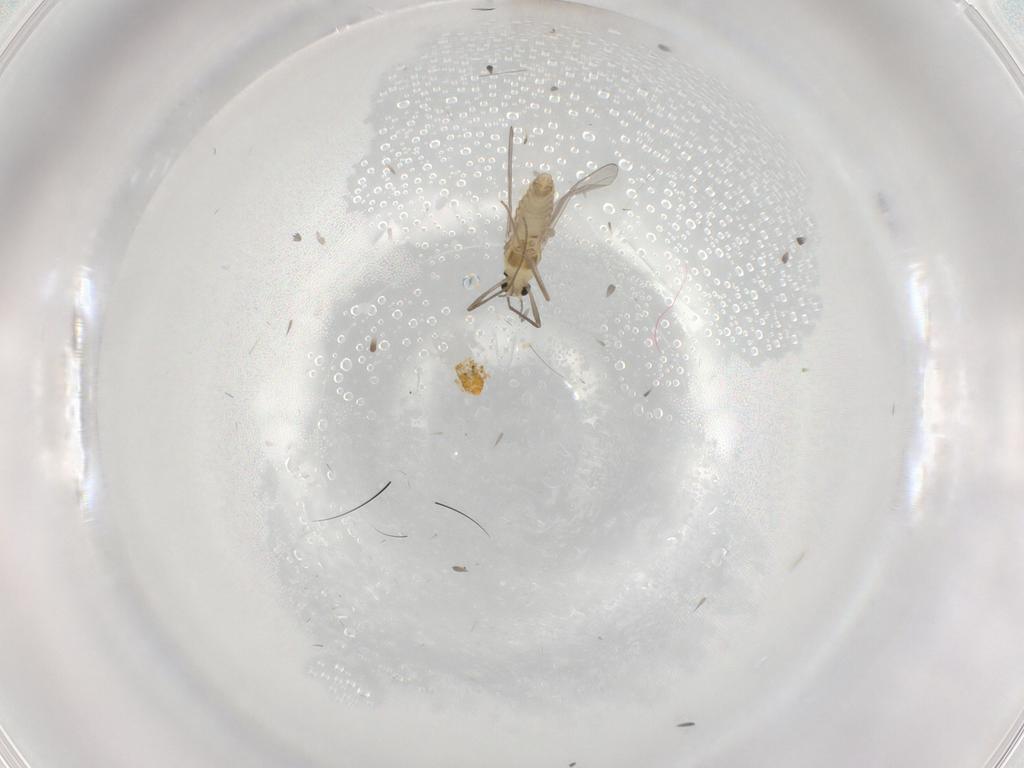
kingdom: Animalia
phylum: Arthropoda
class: Insecta
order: Diptera
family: Chironomidae
